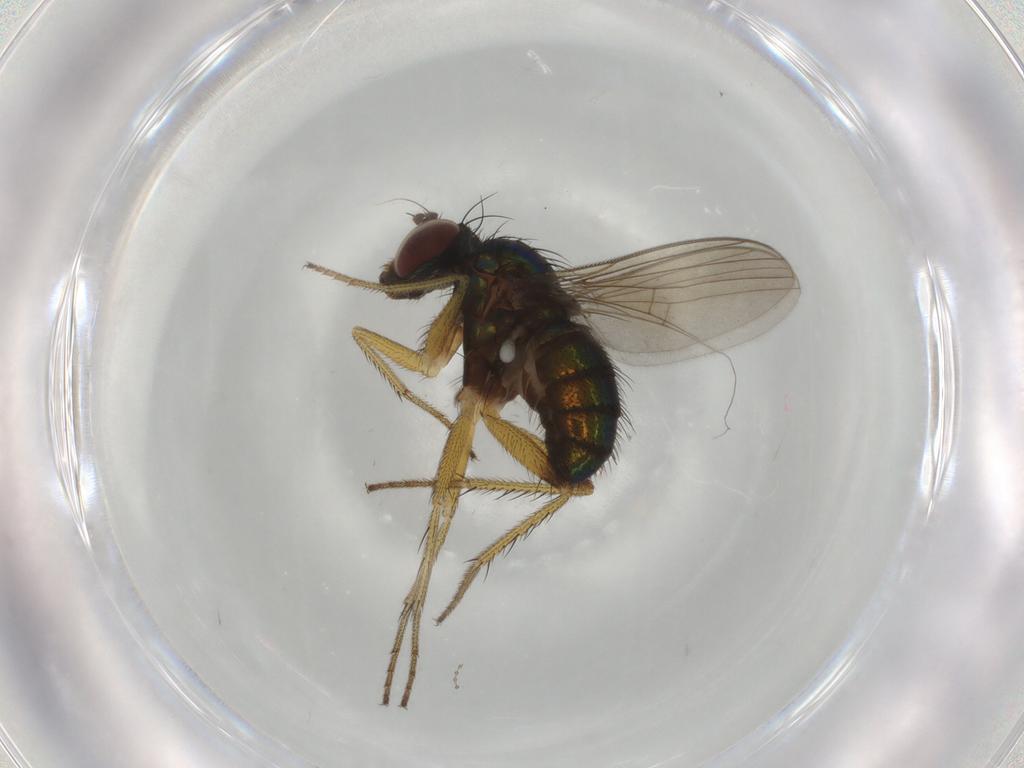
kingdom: Animalia
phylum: Arthropoda
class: Insecta
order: Diptera
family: Dolichopodidae
